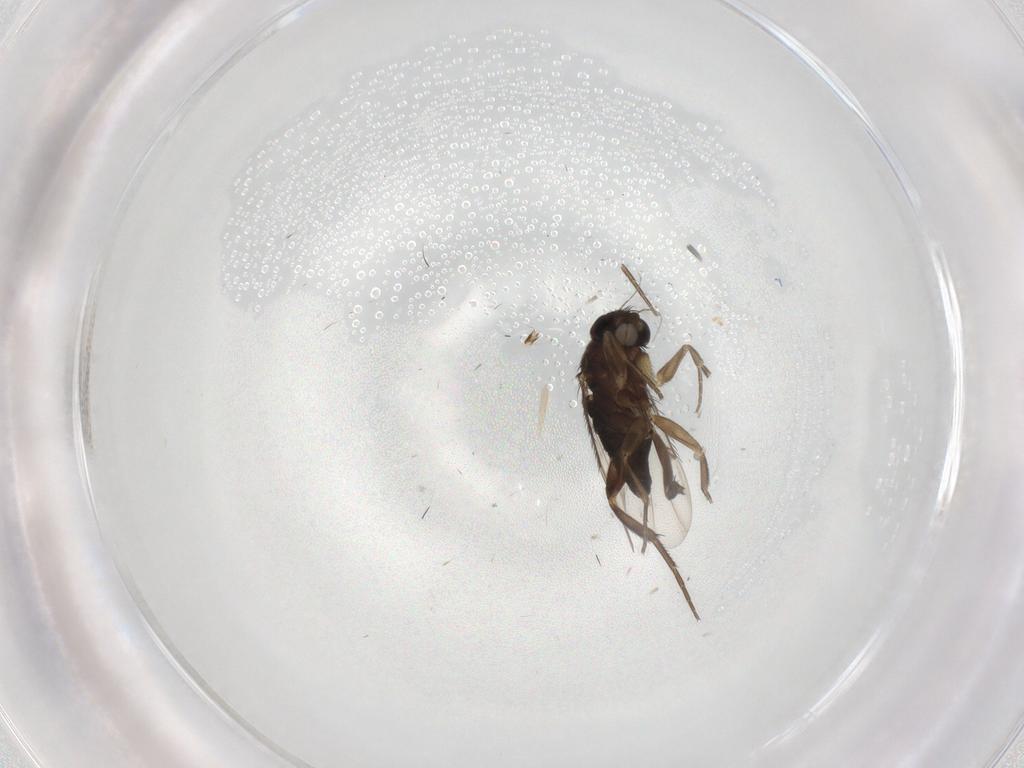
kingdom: Animalia
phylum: Arthropoda
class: Insecta
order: Diptera
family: Phoridae
